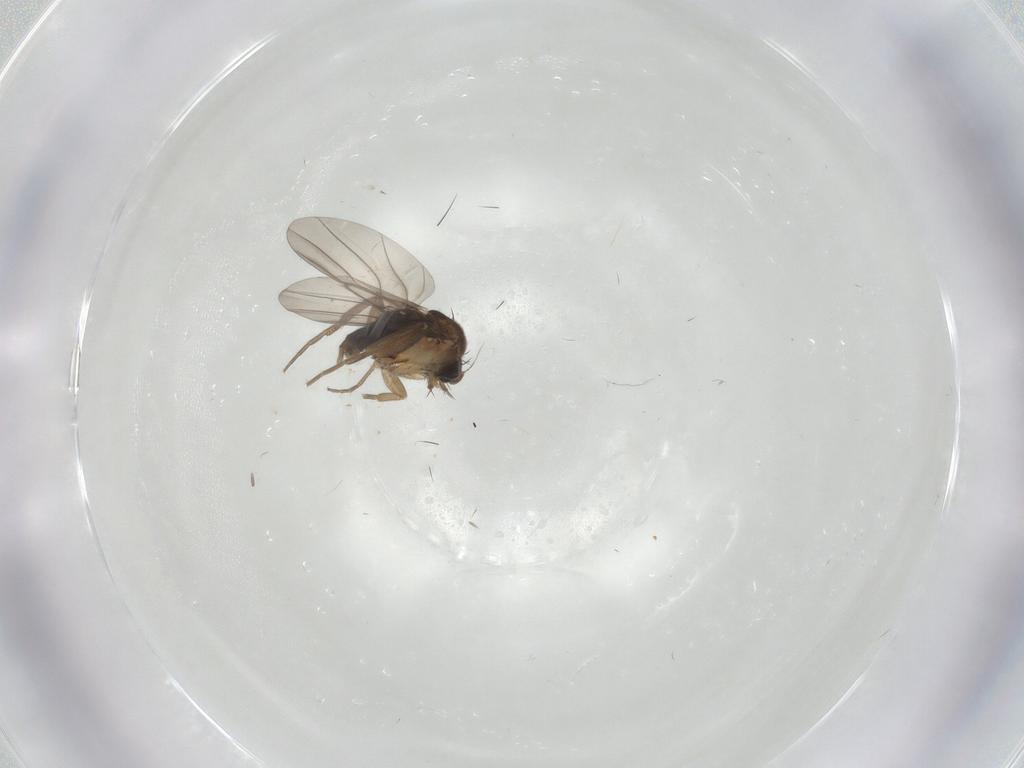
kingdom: Animalia
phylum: Arthropoda
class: Insecta
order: Diptera
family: Cecidomyiidae
